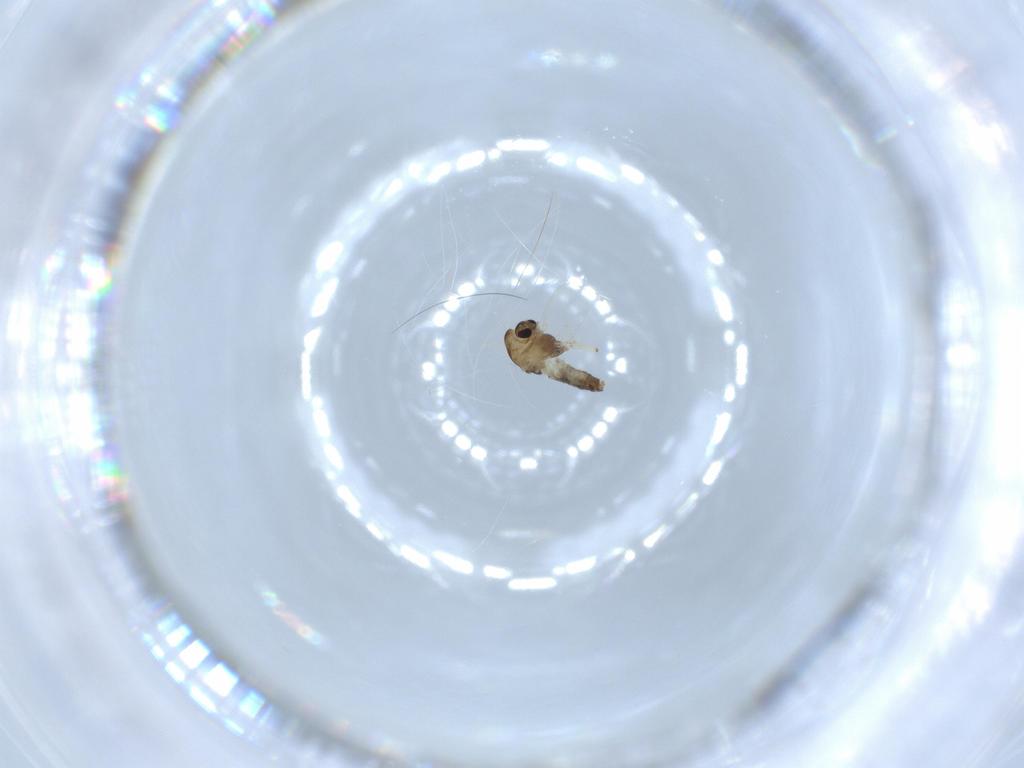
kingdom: Animalia
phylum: Arthropoda
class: Insecta
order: Diptera
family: Chironomidae
